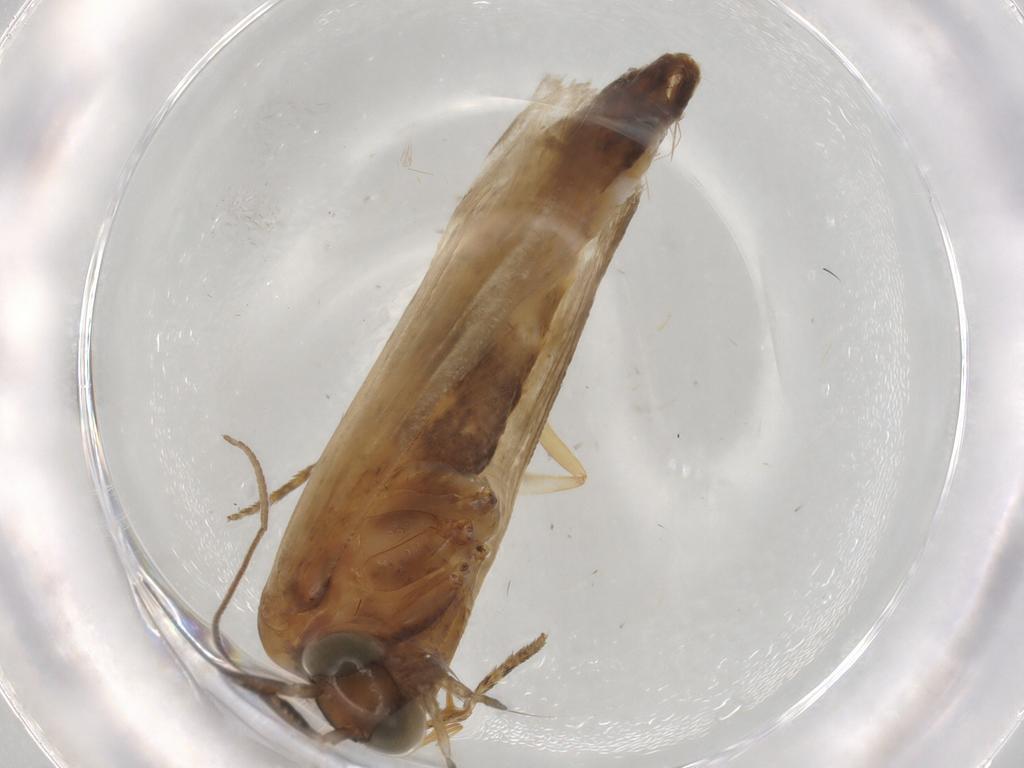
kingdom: Animalia
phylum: Arthropoda
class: Insecta
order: Lepidoptera
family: Pyralidae
